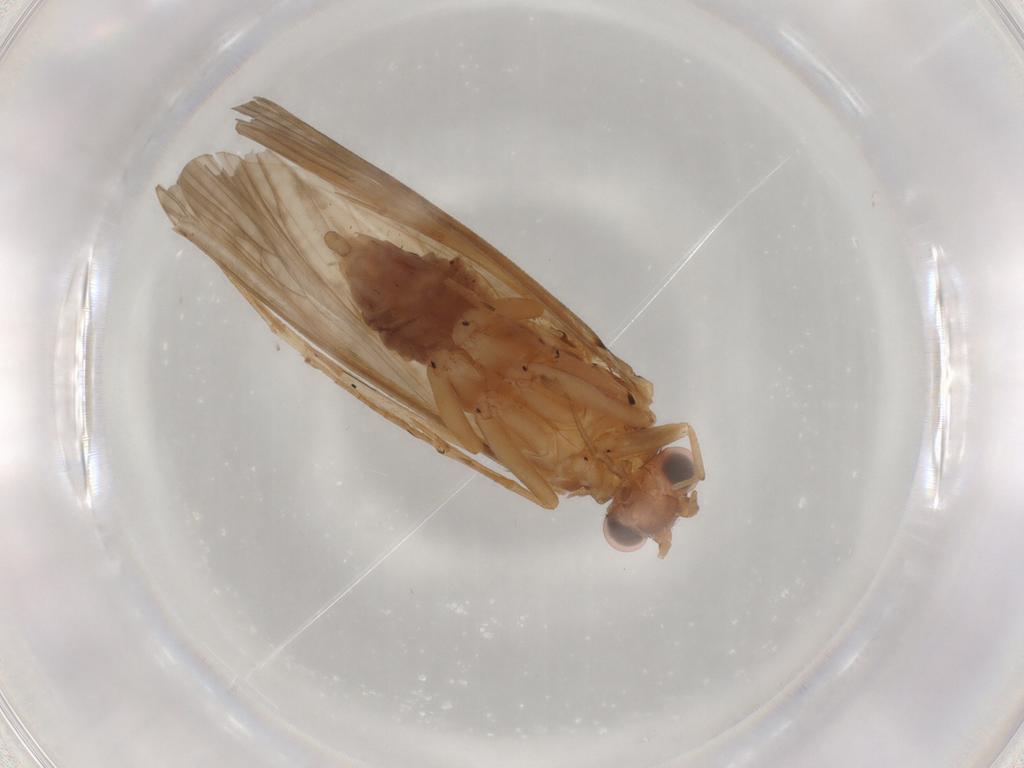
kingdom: Animalia
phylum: Arthropoda
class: Insecta
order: Trichoptera
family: Hydropsychidae
